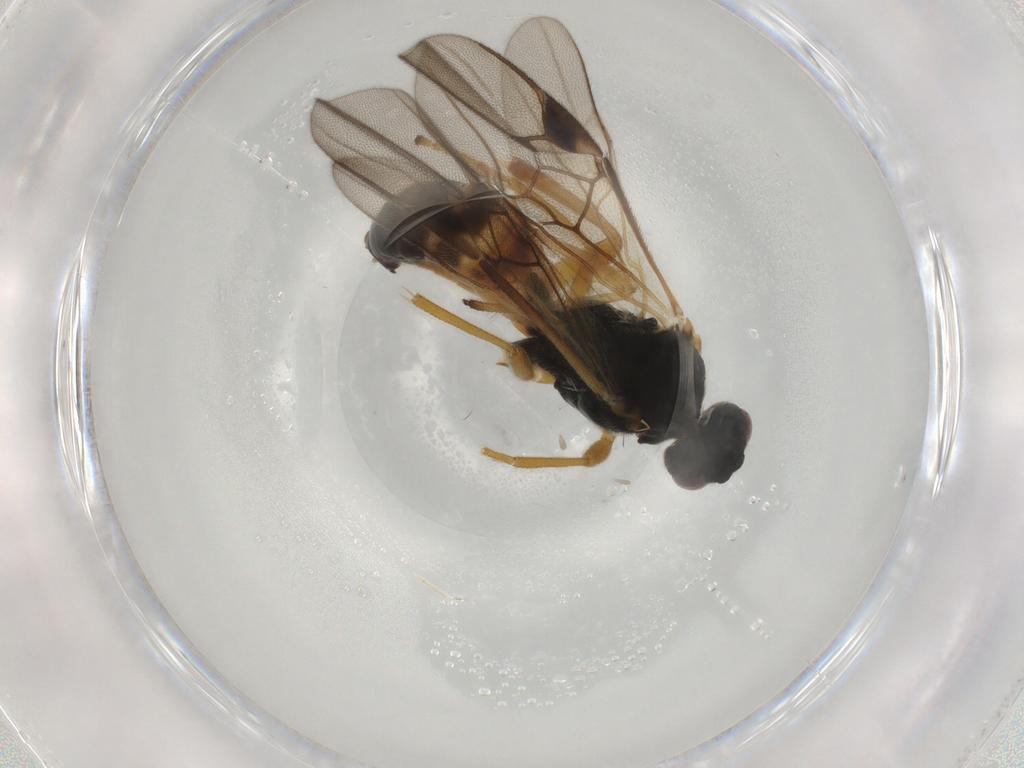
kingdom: Animalia
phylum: Arthropoda
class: Insecta
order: Hymenoptera
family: Braconidae
